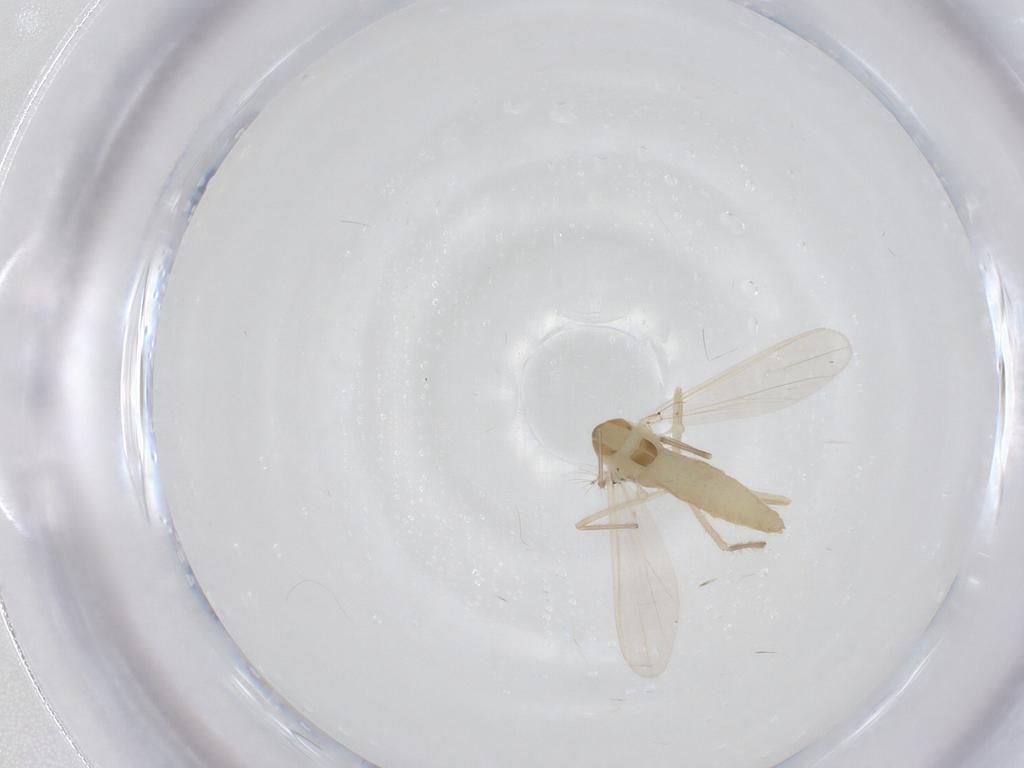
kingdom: Animalia
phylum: Arthropoda
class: Insecta
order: Diptera
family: Chironomidae
